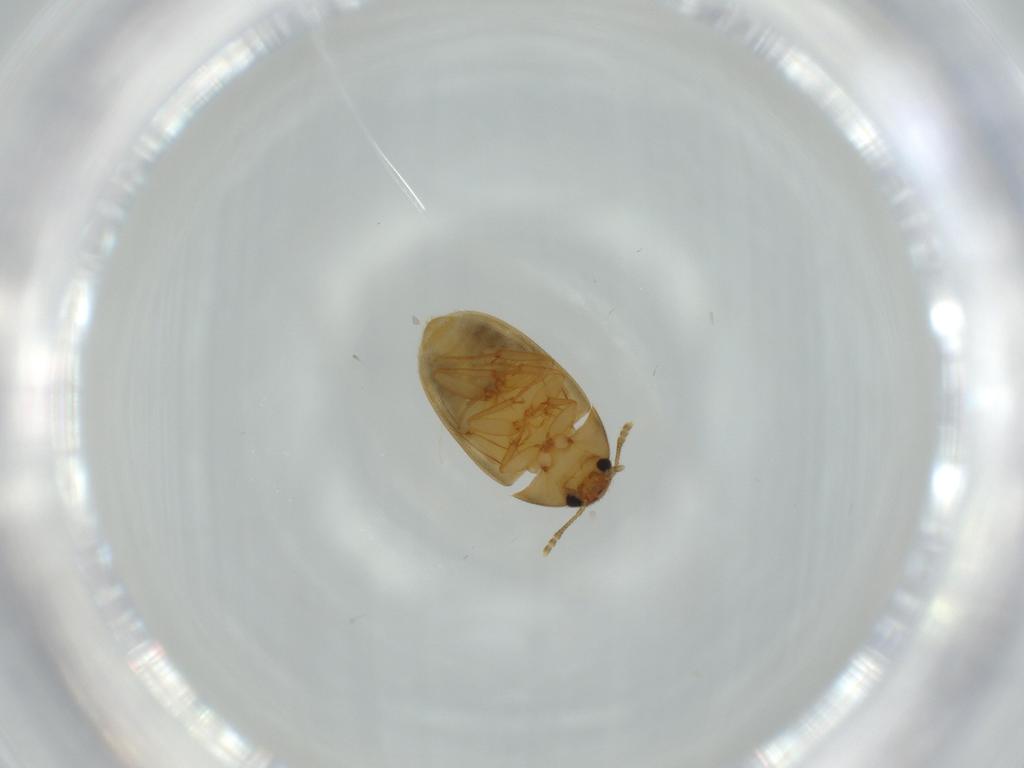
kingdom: Animalia
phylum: Arthropoda
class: Insecta
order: Coleoptera
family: Mycetophagidae
